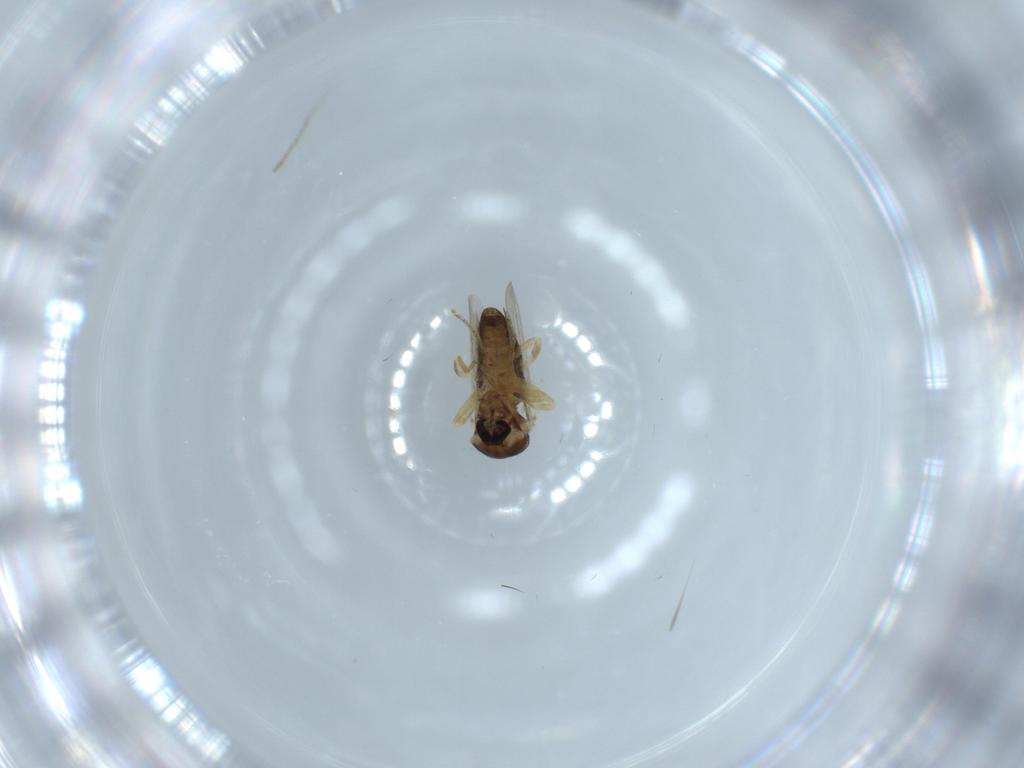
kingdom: Animalia
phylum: Arthropoda
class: Insecta
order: Diptera
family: Ceratopogonidae
